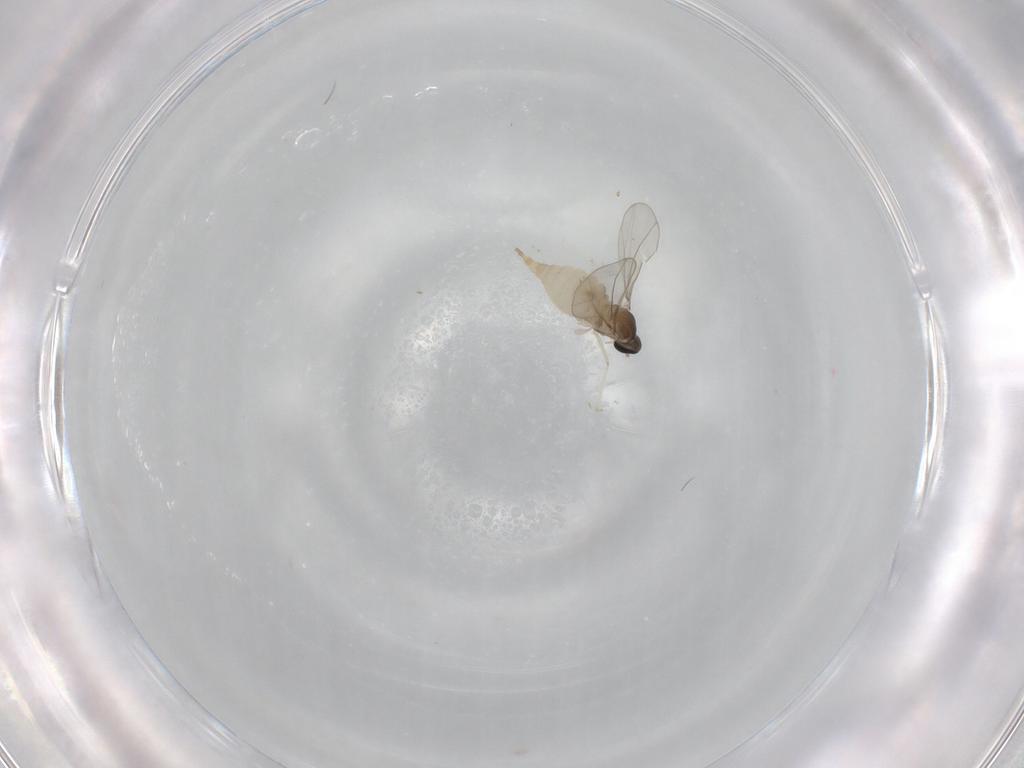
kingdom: Animalia
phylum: Arthropoda
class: Insecta
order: Diptera
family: Cecidomyiidae
